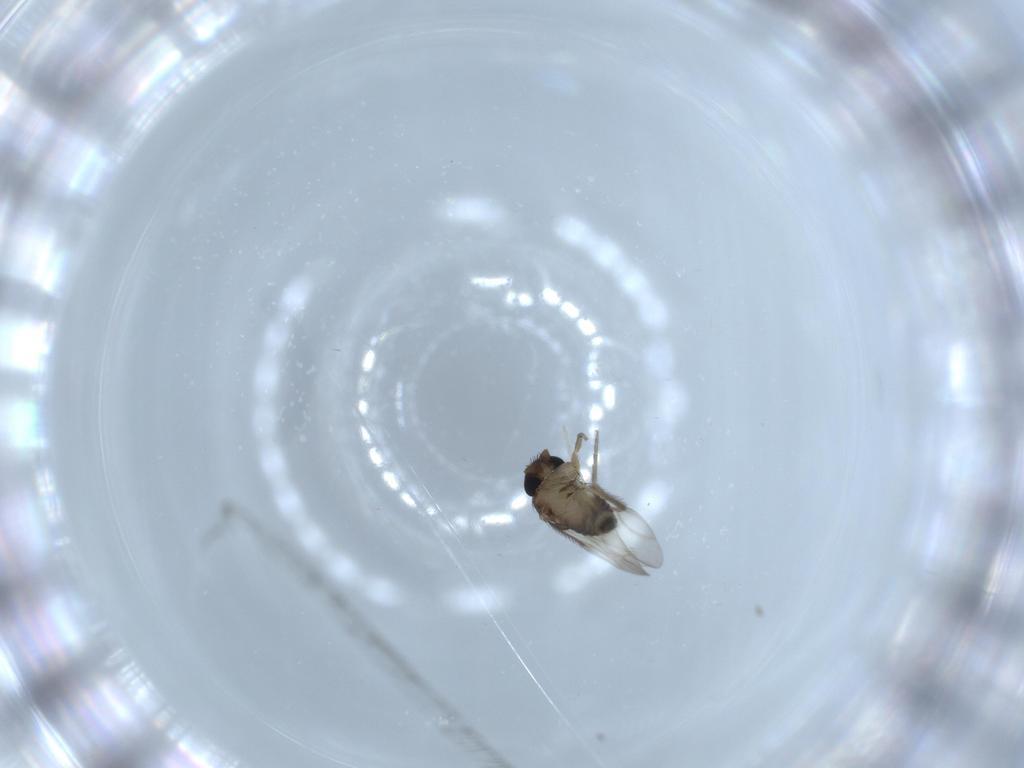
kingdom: Animalia
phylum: Arthropoda
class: Insecta
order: Diptera
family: Phoridae
